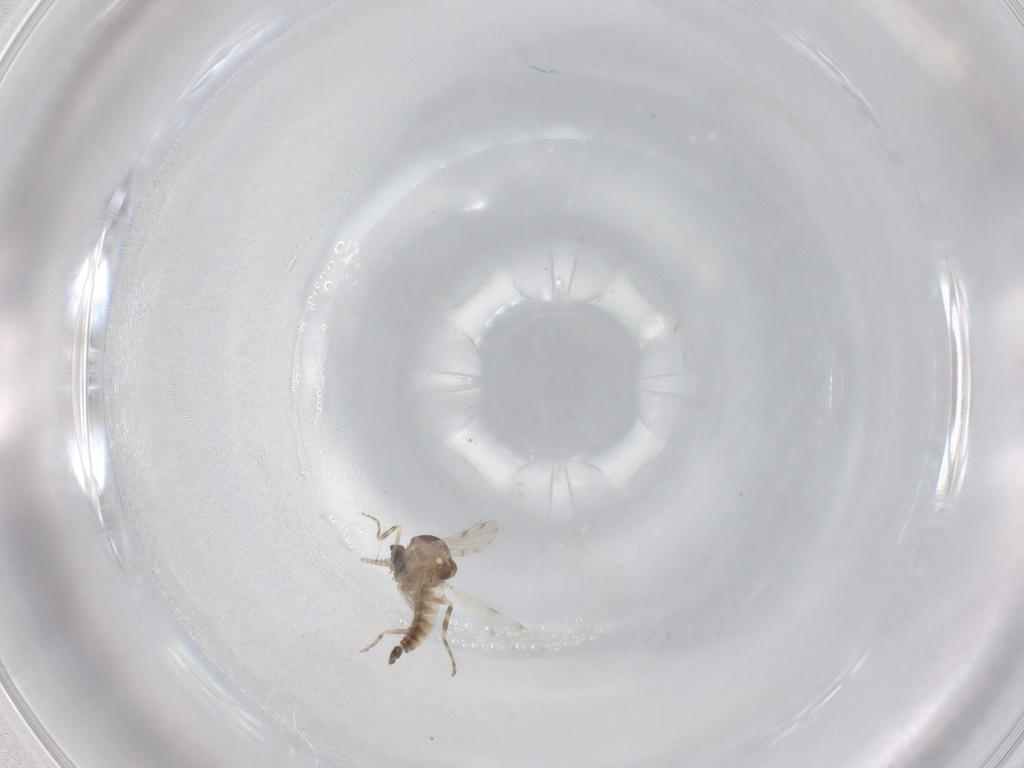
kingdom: Animalia
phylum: Arthropoda
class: Insecta
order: Diptera
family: Ceratopogonidae
